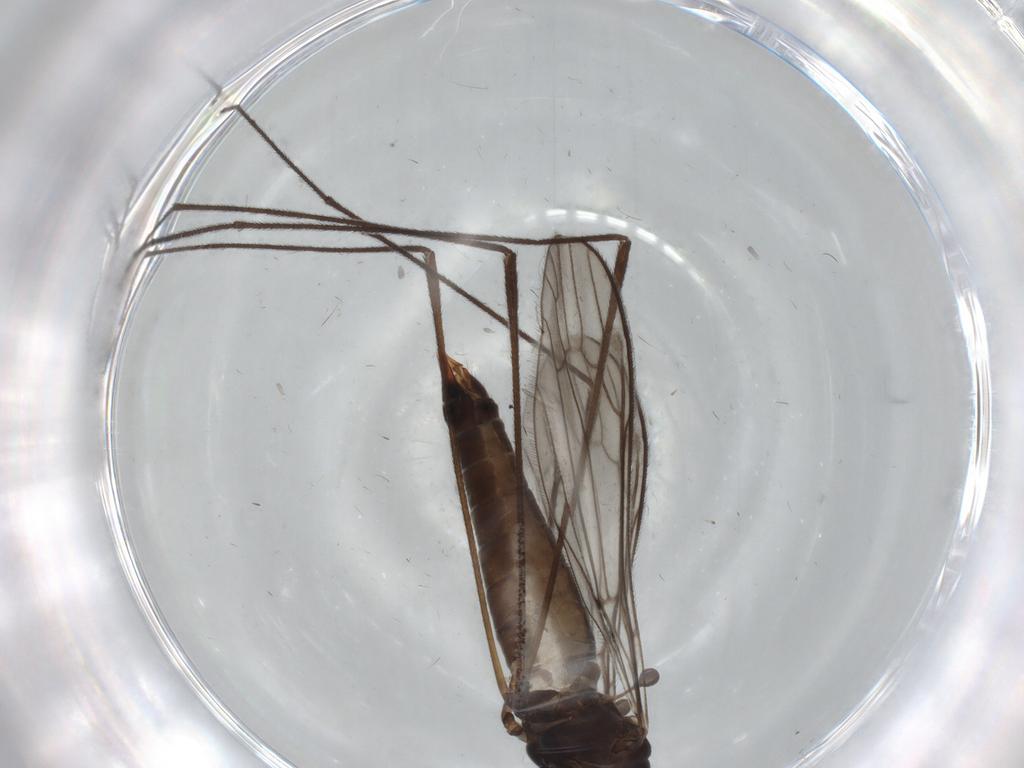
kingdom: Animalia
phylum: Arthropoda
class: Insecta
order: Diptera
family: Limoniidae
